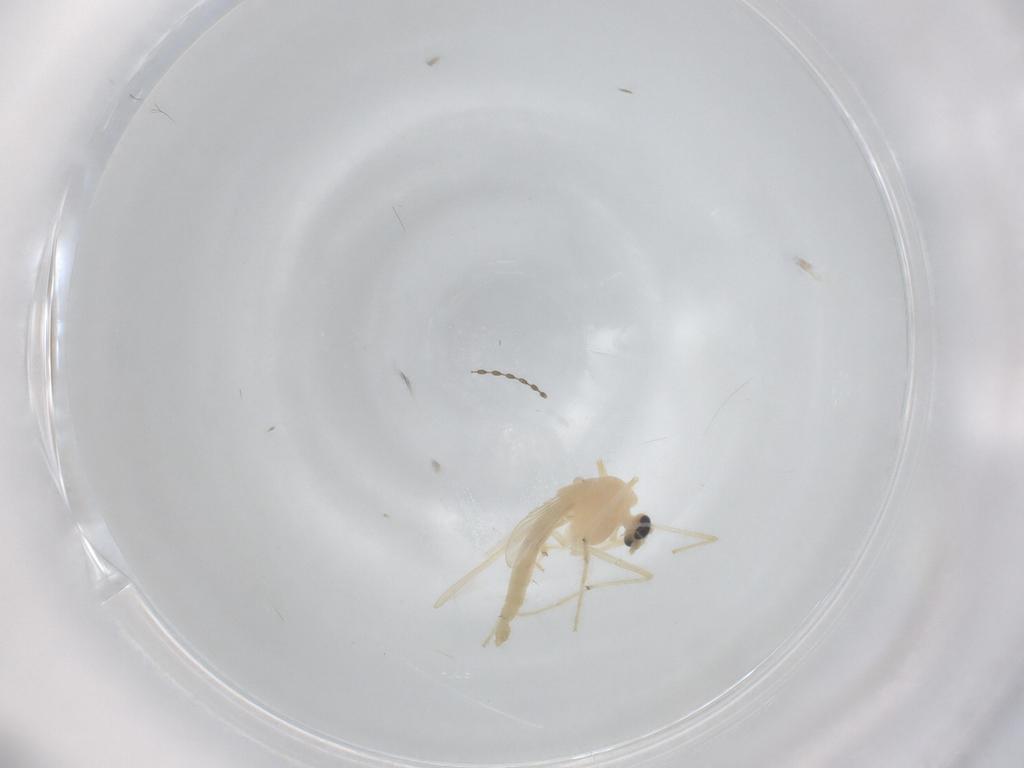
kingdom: Animalia
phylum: Arthropoda
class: Insecta
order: Diptera
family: Chironomidae
